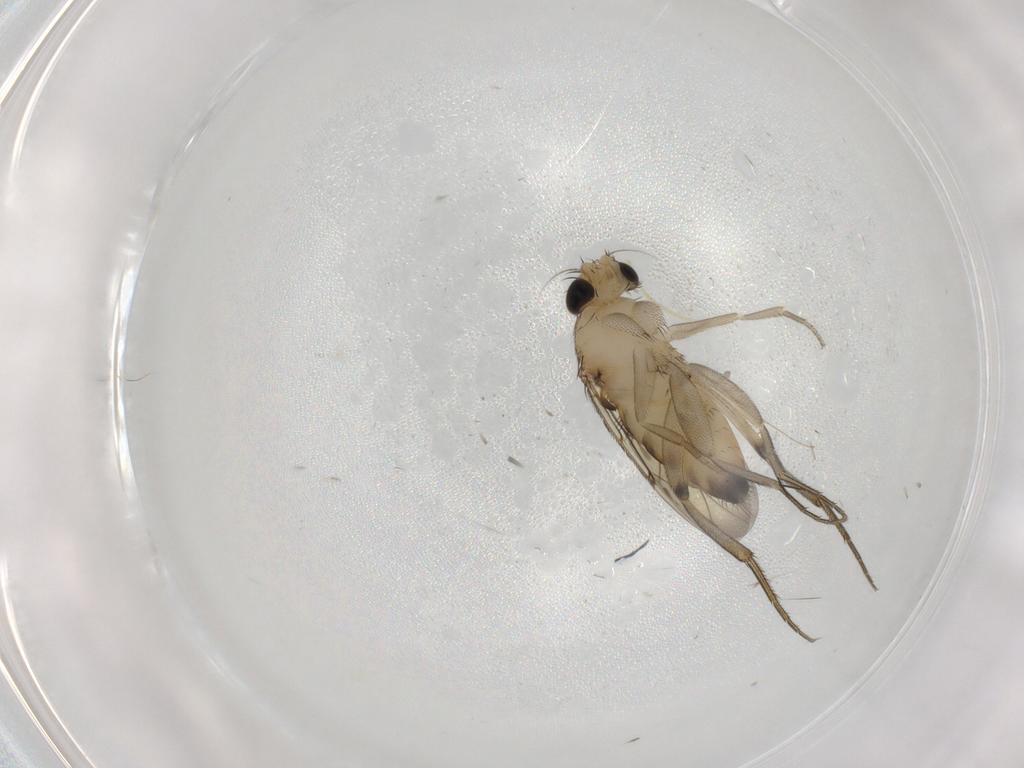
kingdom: Animalia
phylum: Arthropoda
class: Insecta
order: Diptera
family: Phoridae
